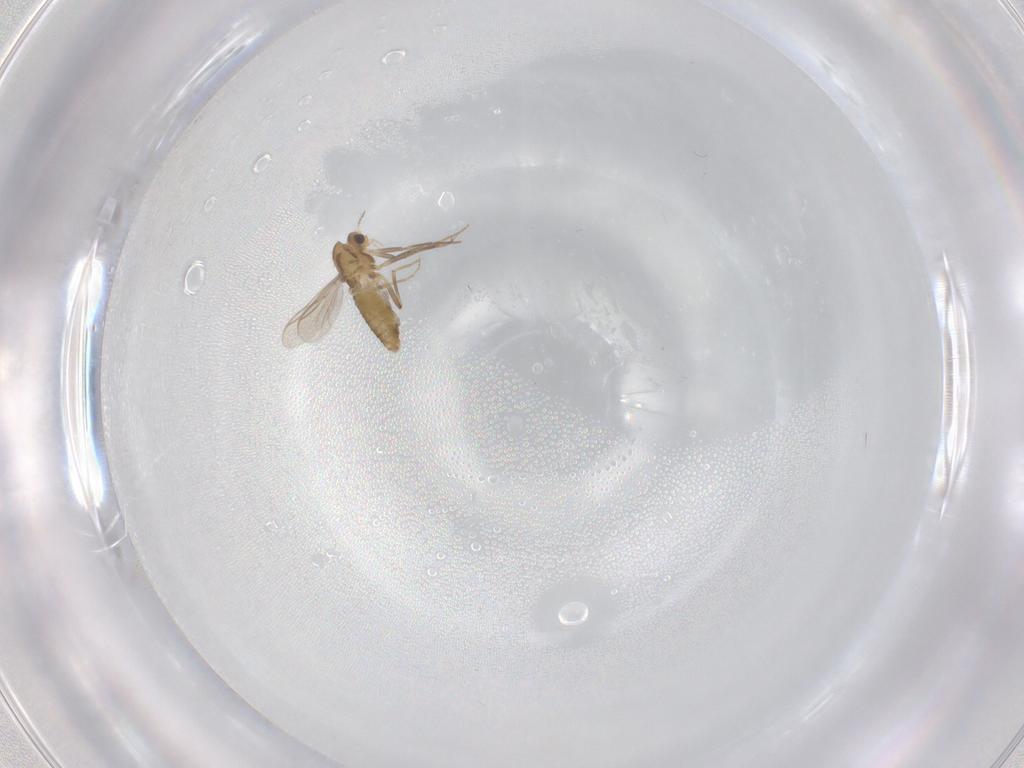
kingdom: Animalia
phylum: Arthropoda
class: Insecta
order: Diptera
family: Chironomidae
